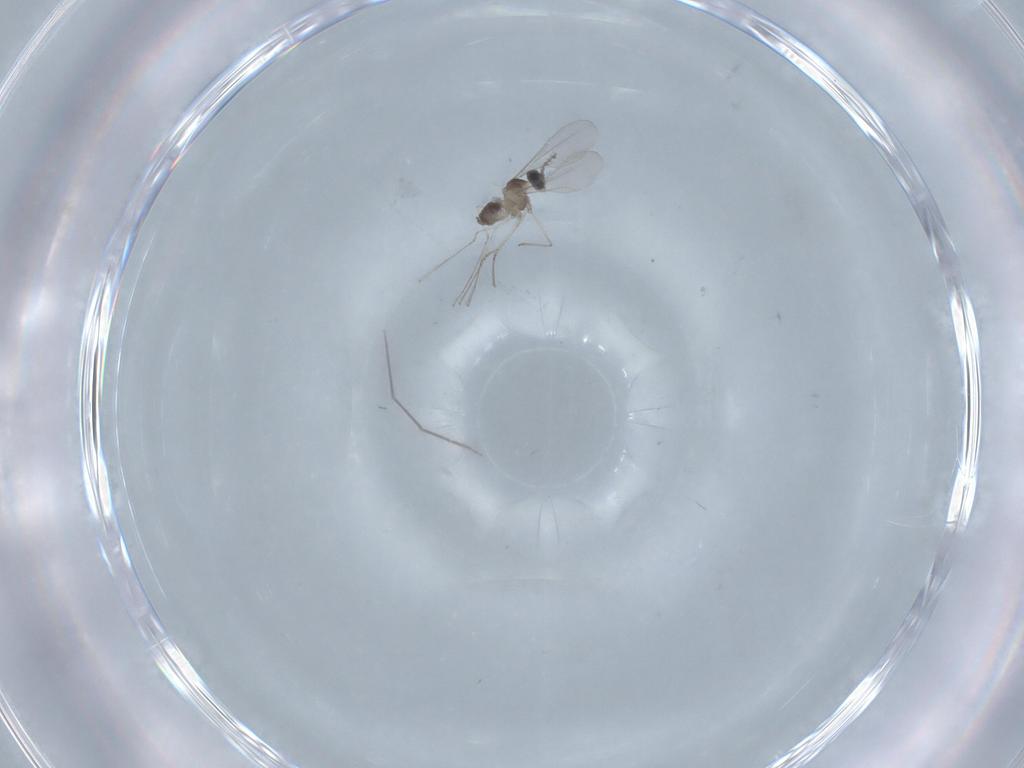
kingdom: Animalia
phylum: Arthropoda
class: Insecta
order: Diptera
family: Cecidomyiidae
